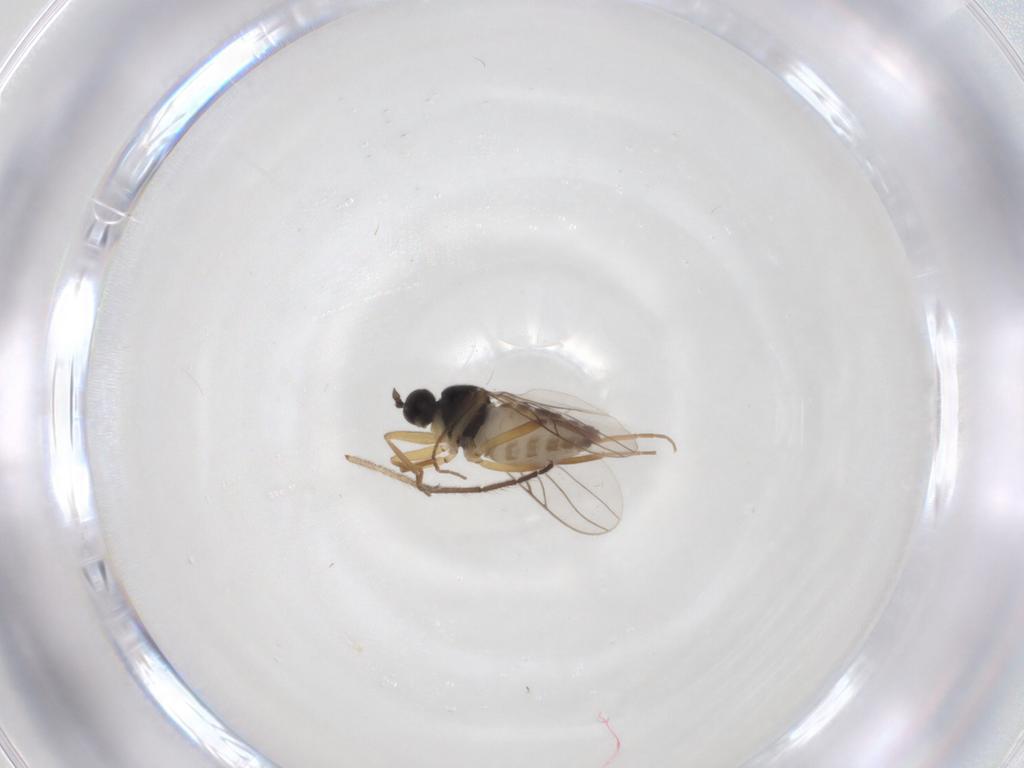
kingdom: Animalia
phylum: Arthropoda
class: Insecta
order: Diptera
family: Hybotidae
